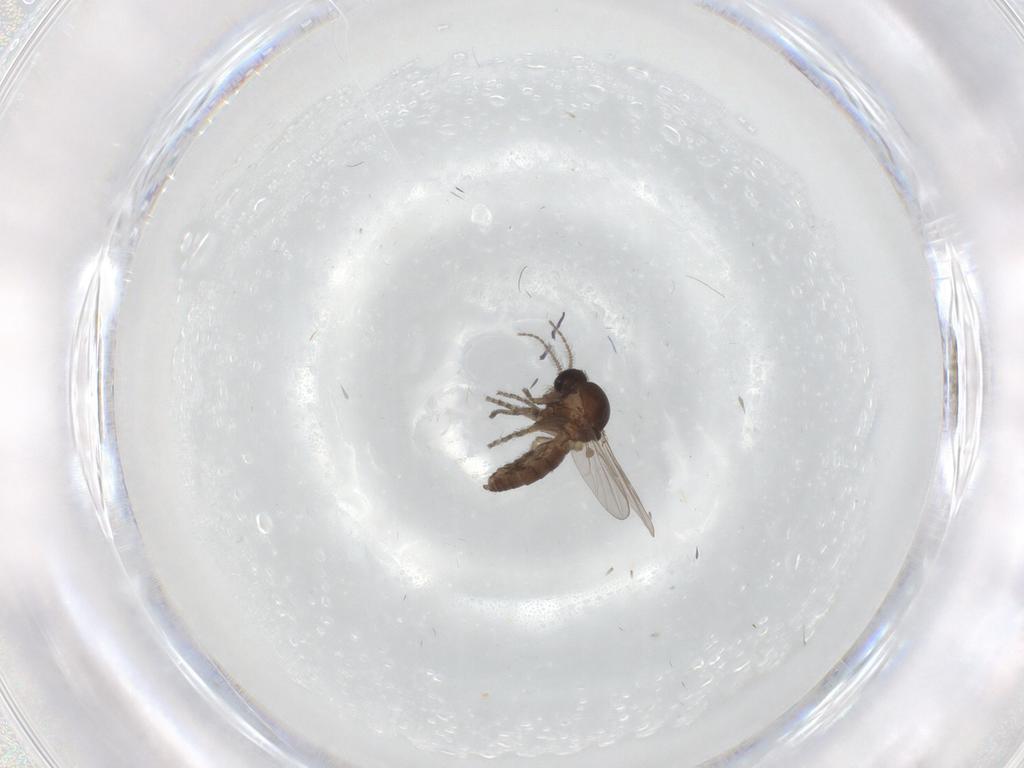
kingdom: Animalia
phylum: Arthropoda
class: Insecta
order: Diptera
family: Ceratopogonidae
